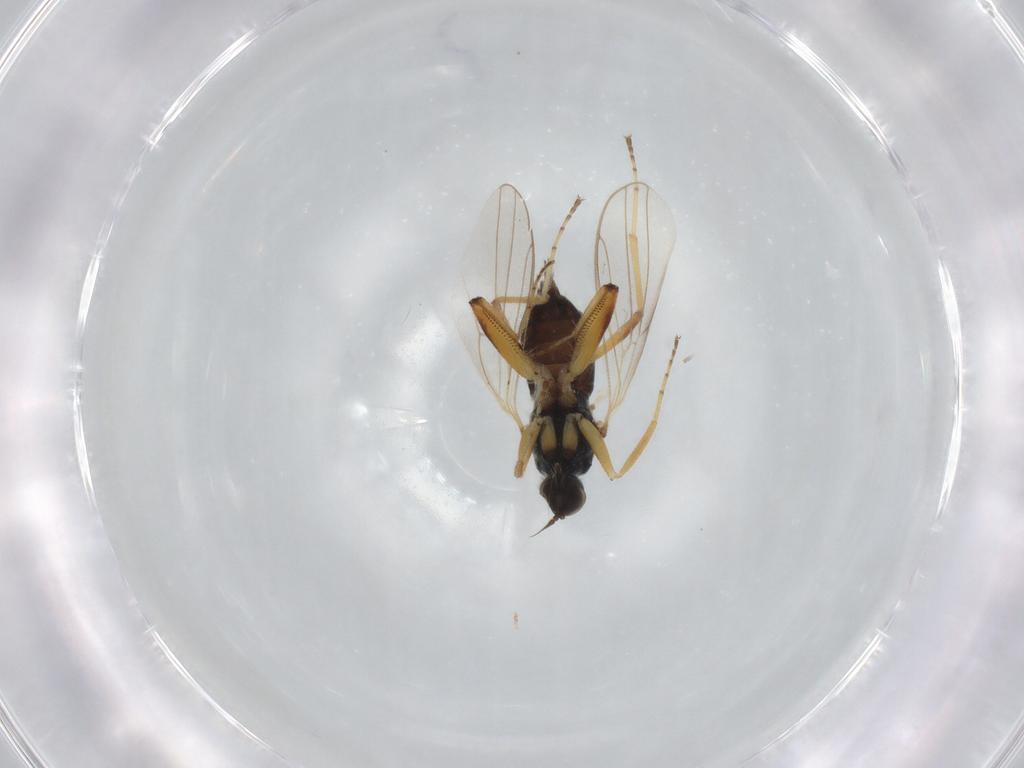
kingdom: Animalia
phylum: Arthropoda
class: Insecta
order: Diptera
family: Hybotidae
